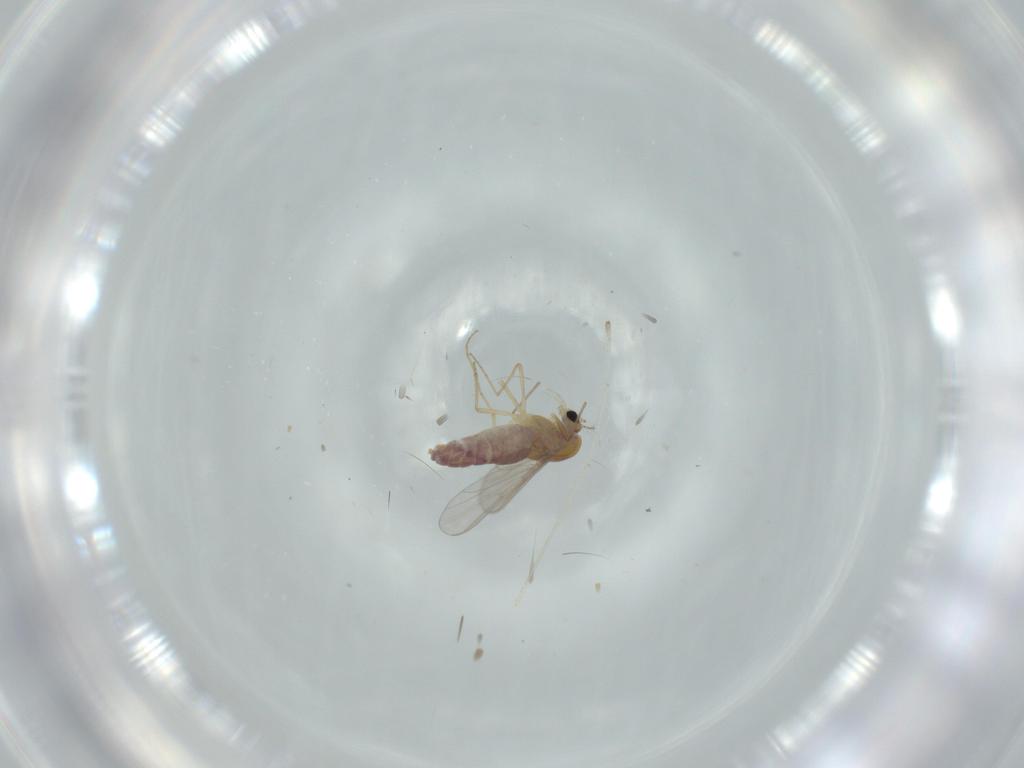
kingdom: Animalia
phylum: Arthropoda
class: Insecta
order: Diptera
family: Chironomidae
